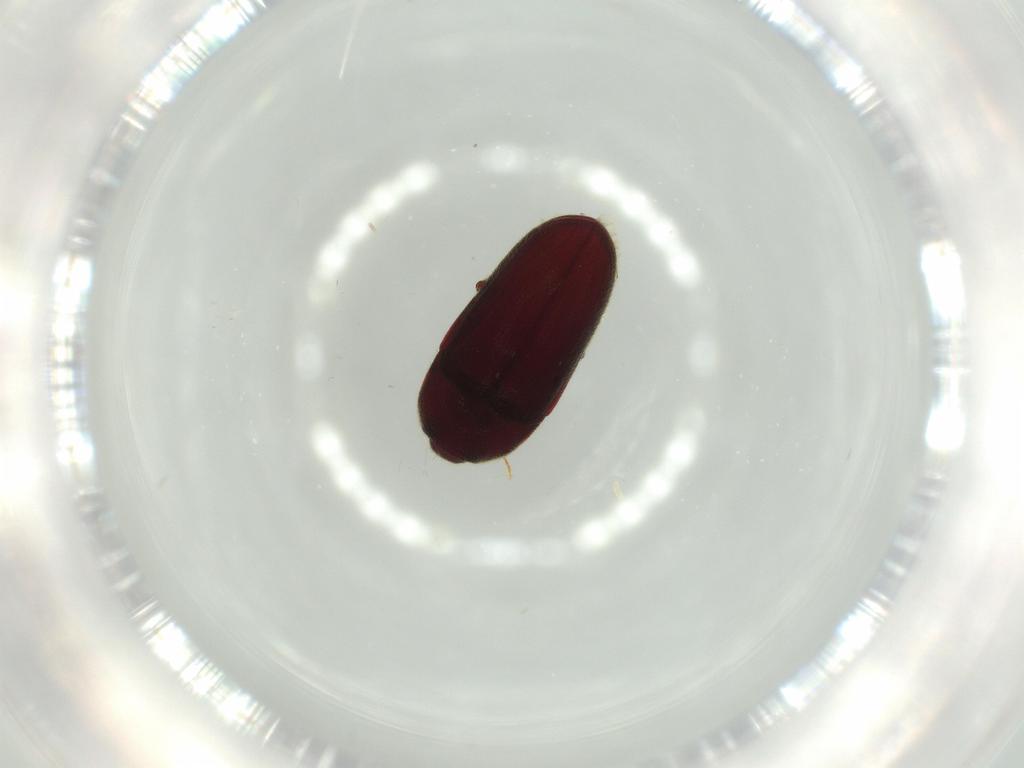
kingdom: Animalia
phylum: Arthropoda
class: Insecta
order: Coleoptera
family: Throscidae
